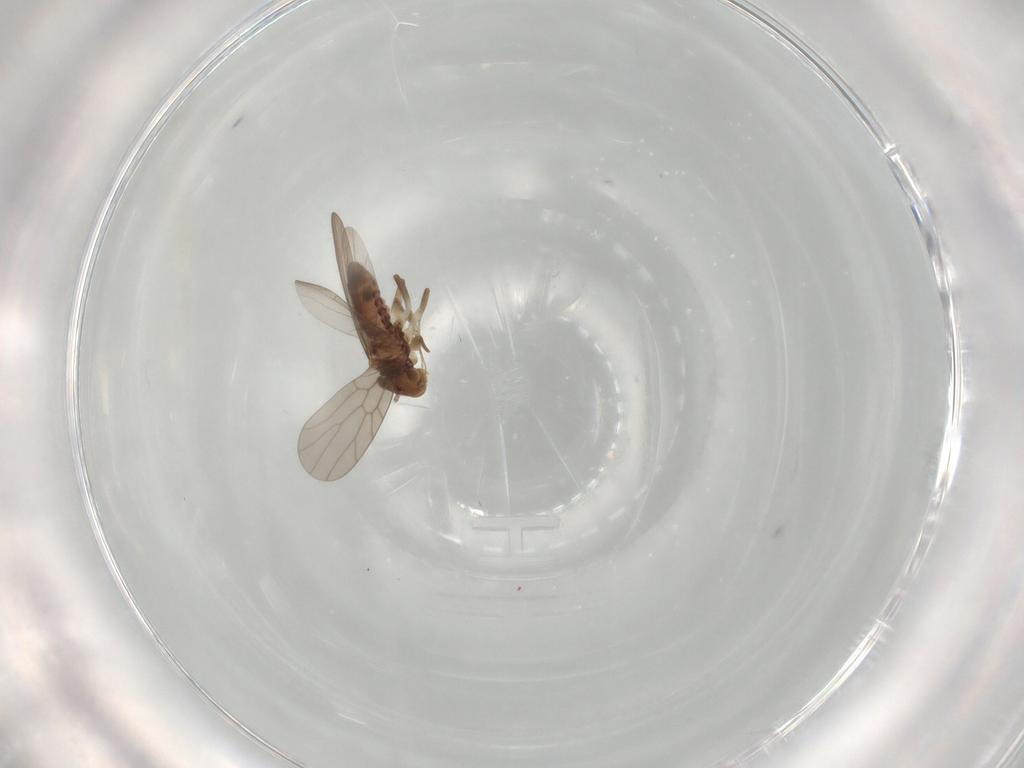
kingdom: Animalia
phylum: Arthropoda
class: Insecta
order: Psocodea
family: Lepidopsocidae
